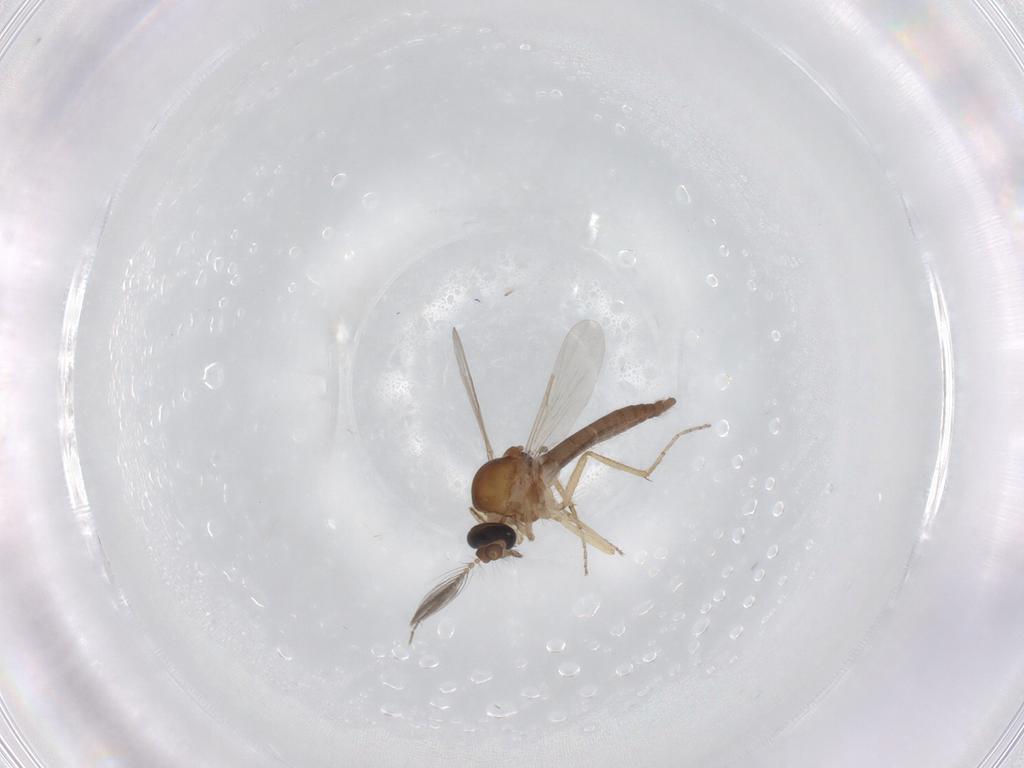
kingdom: Animalia
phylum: Arthropoda
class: Insecta
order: Diptera
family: Ceratopogonidae
